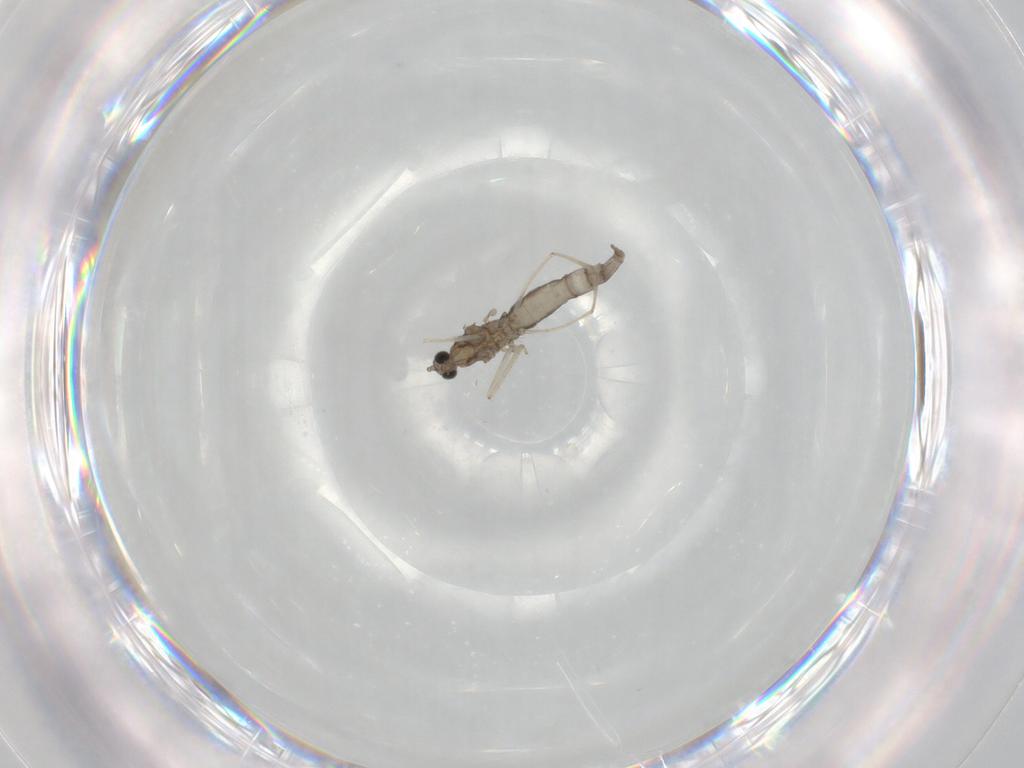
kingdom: Animalia
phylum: Arthropoda
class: Insecta
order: Diptera
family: Cecidomyiidae
